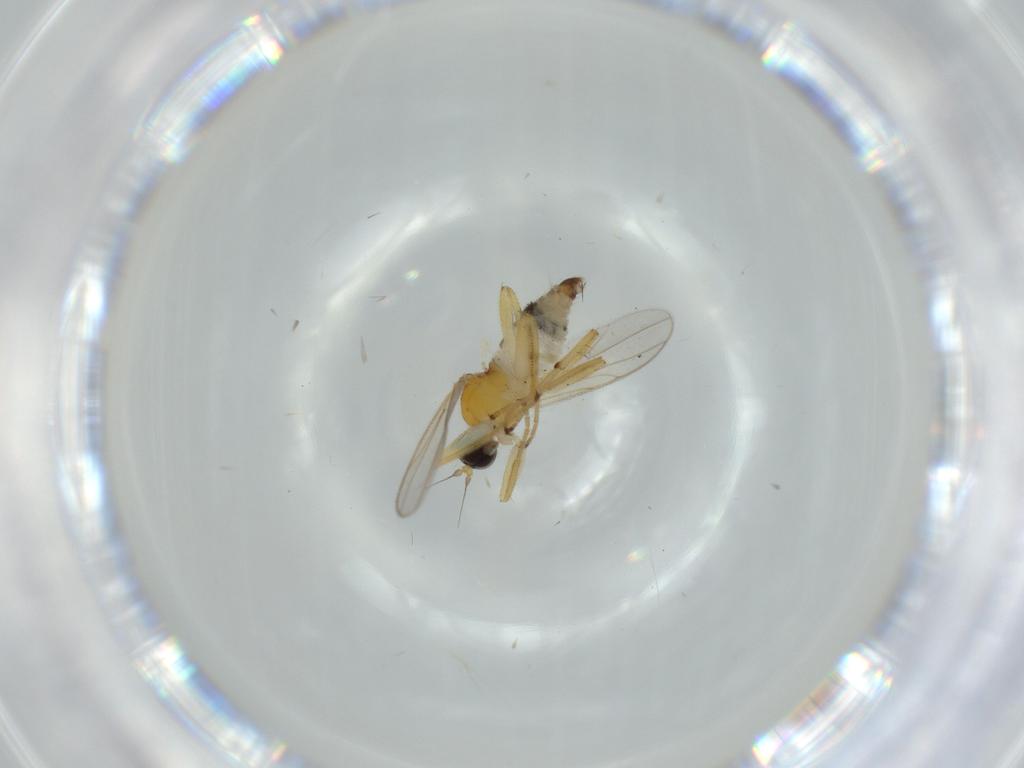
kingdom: Animalia
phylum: Arthropoda
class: Insecta
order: Diptera
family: Hybotidae
